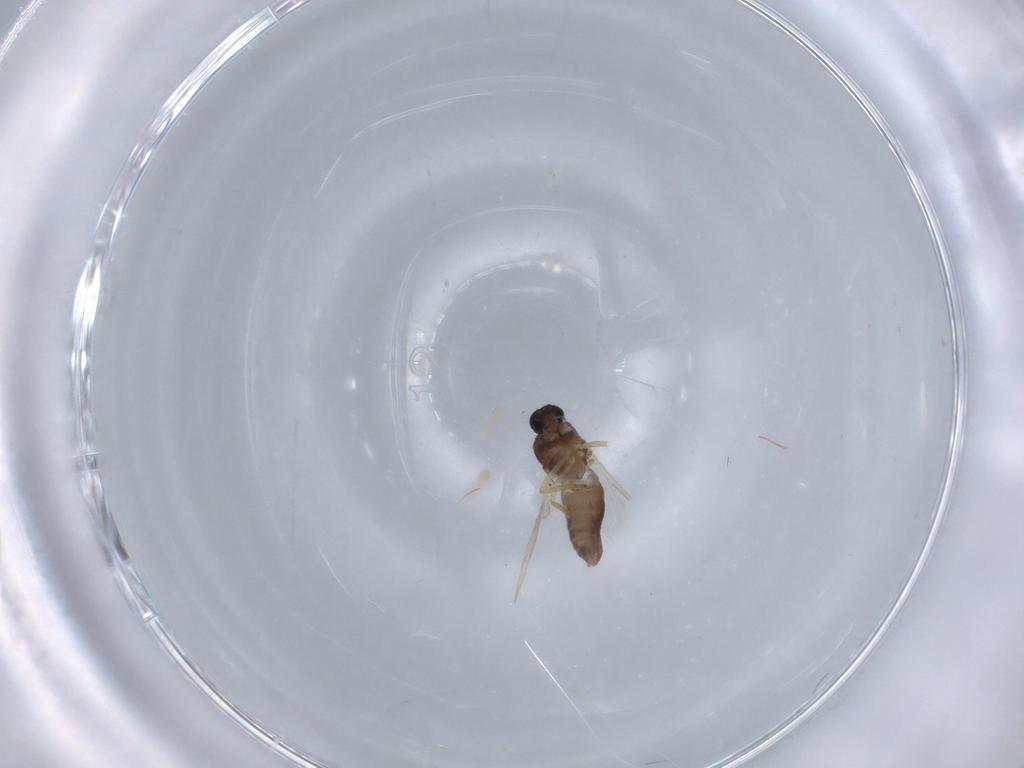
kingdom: Animalia
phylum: Arthropoda
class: Insecta
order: Diptera
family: Ceratopogonidae
